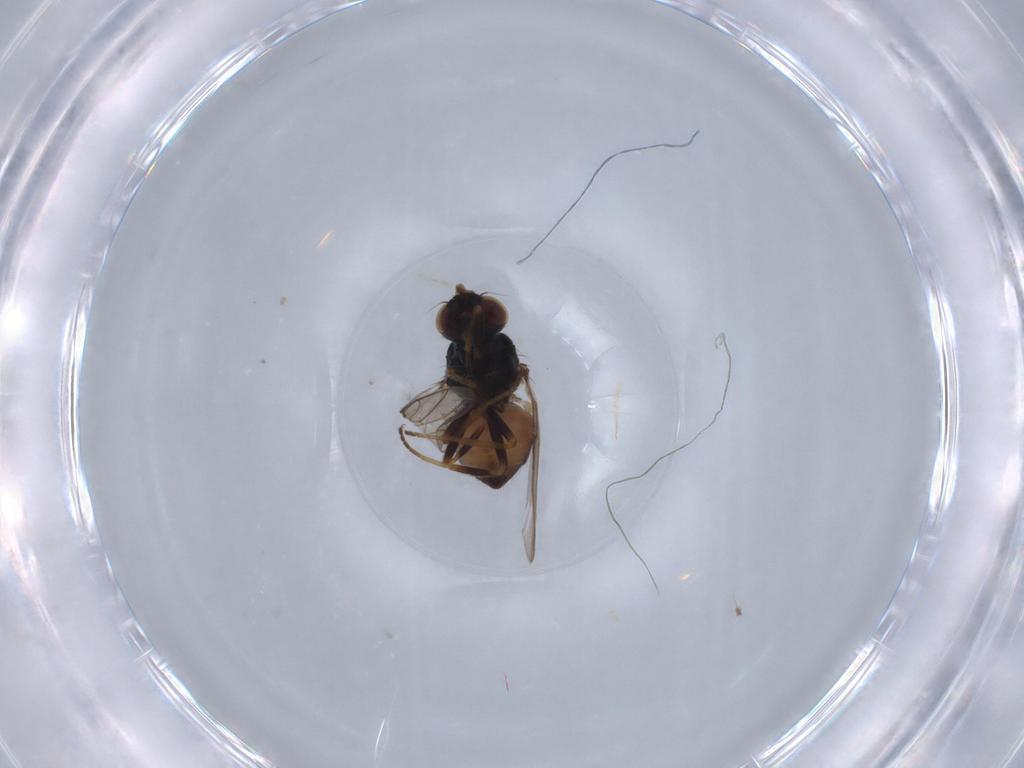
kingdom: Animalia
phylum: Arthropoda
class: Insecta
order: Diptera
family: Chloropidae
